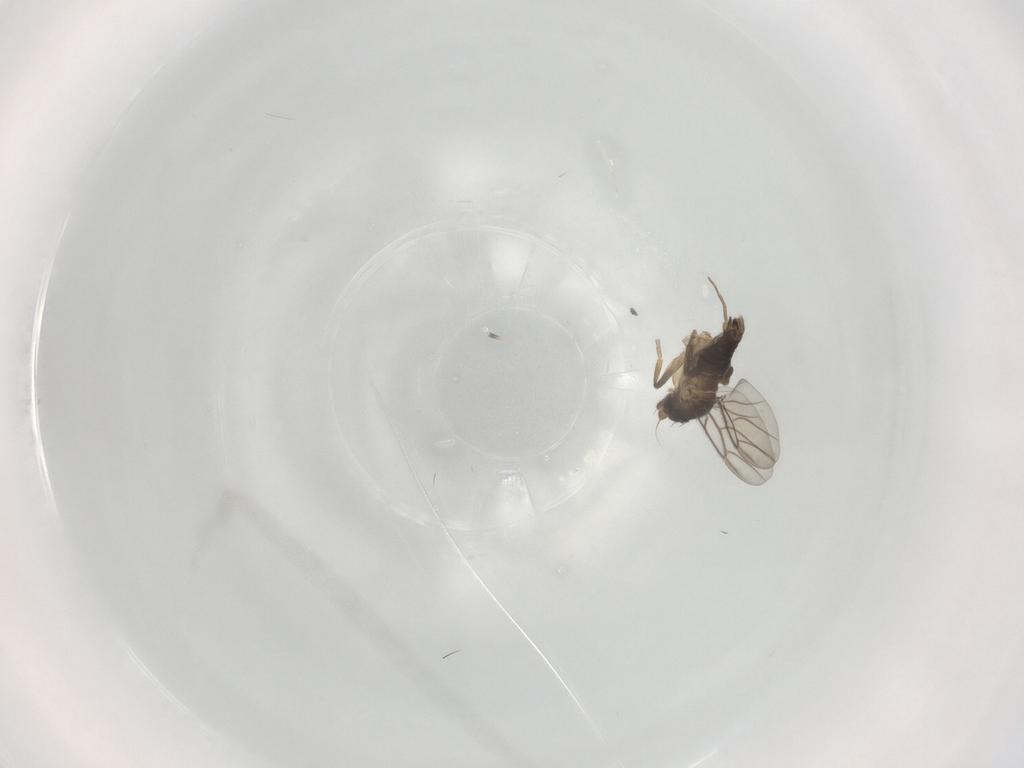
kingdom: Animalia
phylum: Arthropoda
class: Insecta
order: Diptera
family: Phoridae
